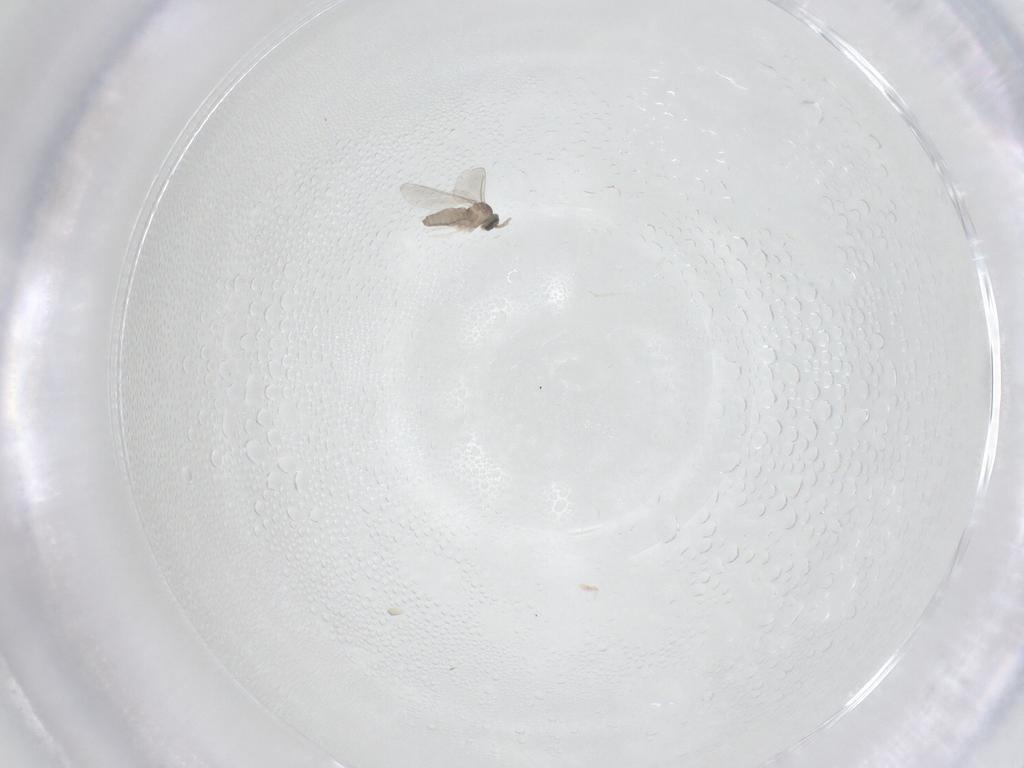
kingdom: Animalia
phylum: Arthropoda
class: Insecta
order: Diptera
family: Cecidomyiidae
